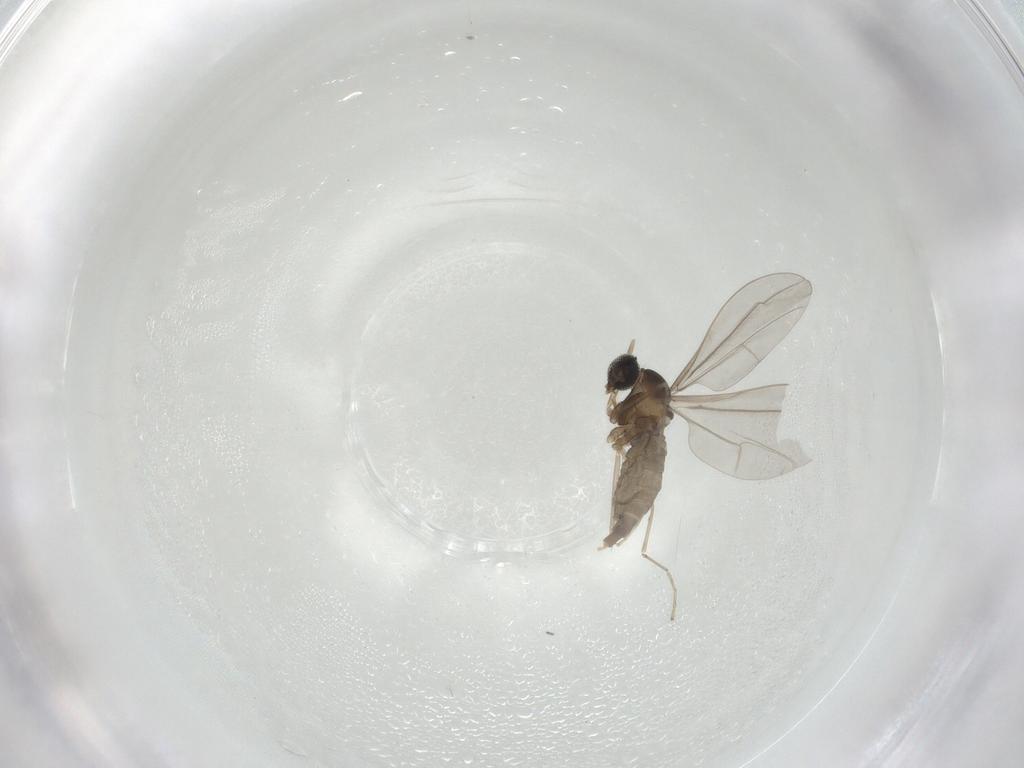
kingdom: Animalia
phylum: Arthropoda
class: Insecta
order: Diptera
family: Cecidomyiidae
